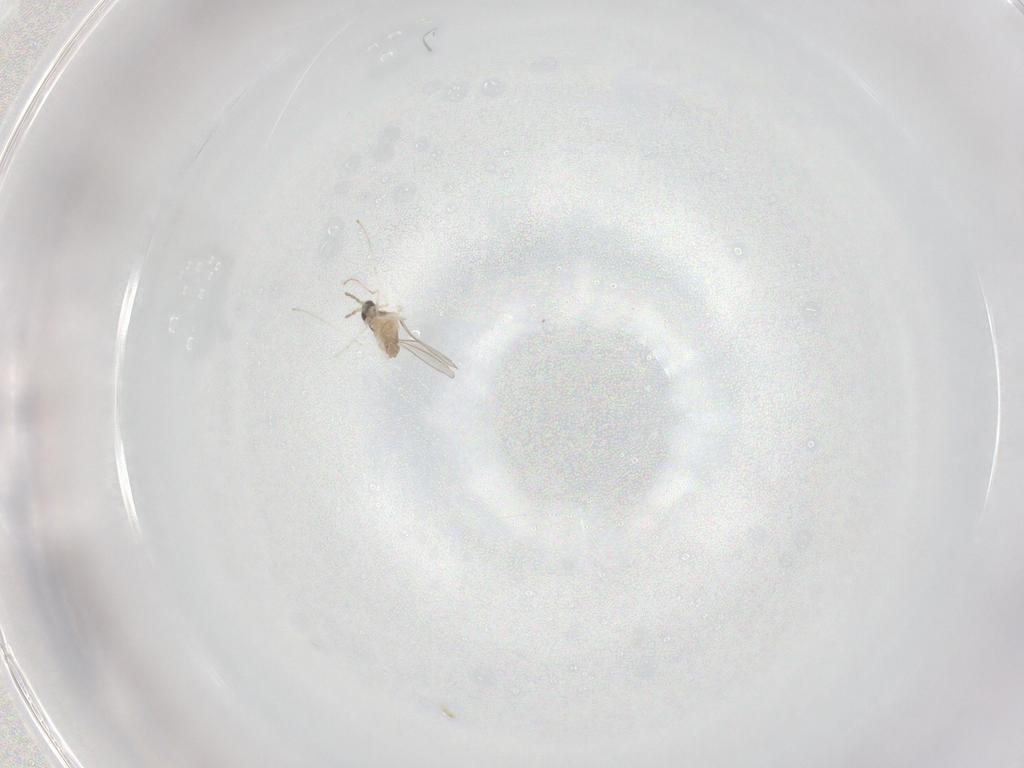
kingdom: Animalia
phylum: Arthropoda
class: Insecta
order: Diptera
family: Cecidomyiidae
